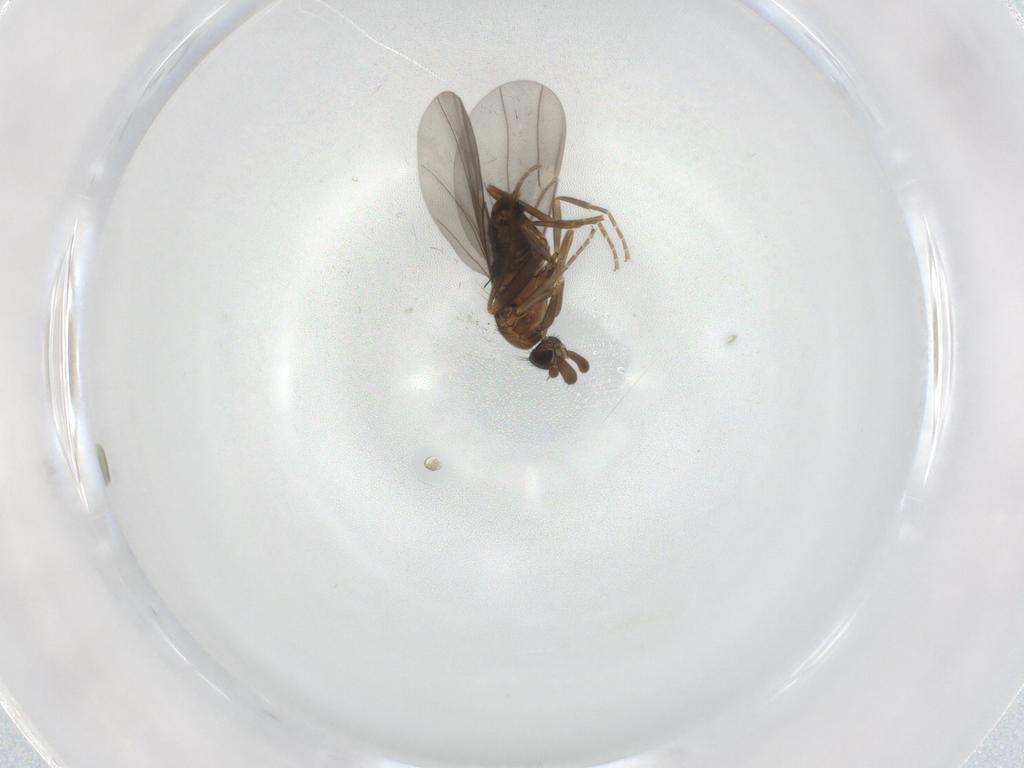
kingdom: Animalia
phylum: Arthropoda
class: Insecta
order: Diptera
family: Phoridae
